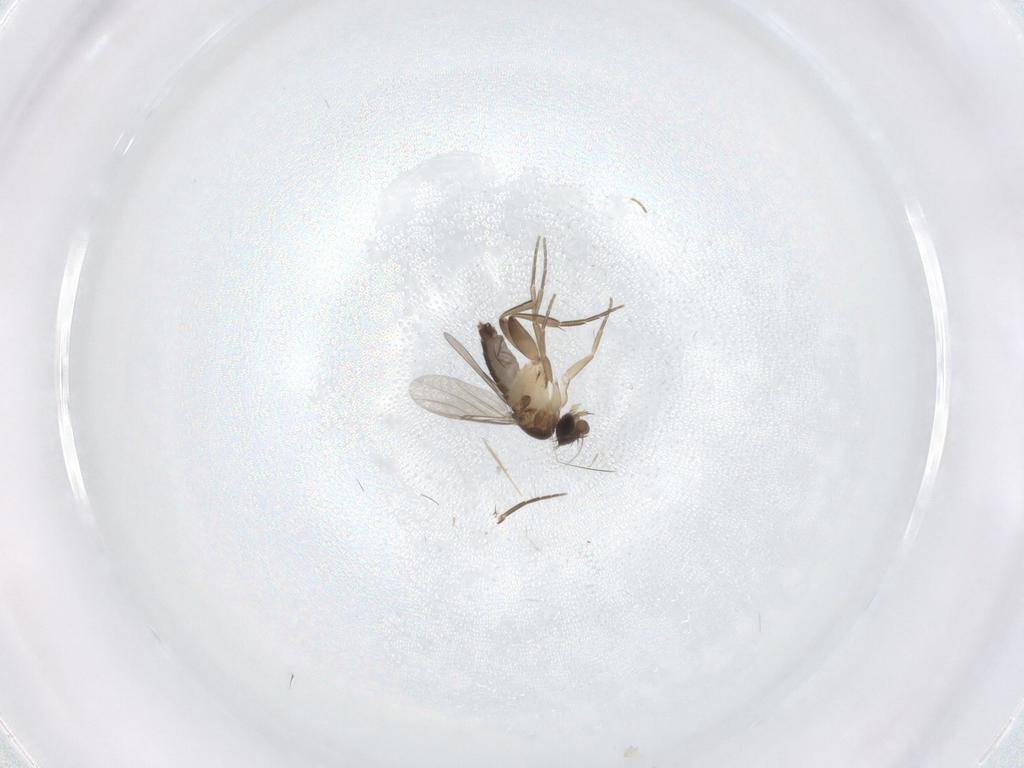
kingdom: Animalia
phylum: Arthropoda
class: Insecta
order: Diptera
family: Phoridae
